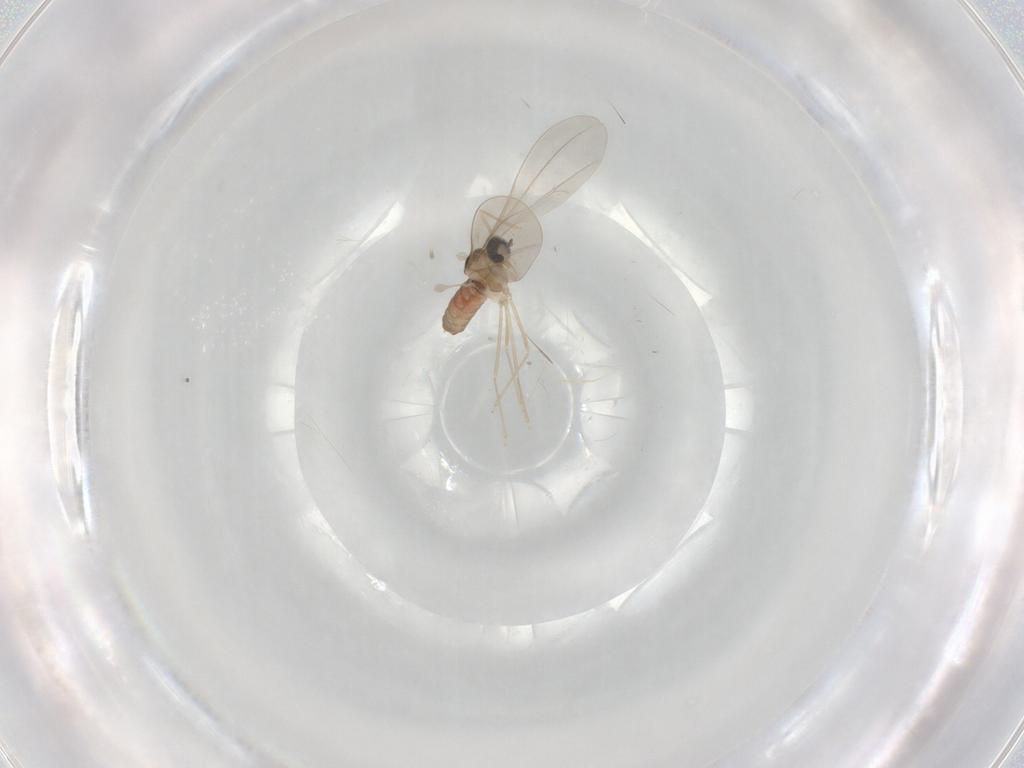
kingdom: Animalia
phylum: Arthropoda
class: Insecta
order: Diptera
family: Cecidomyiidae
